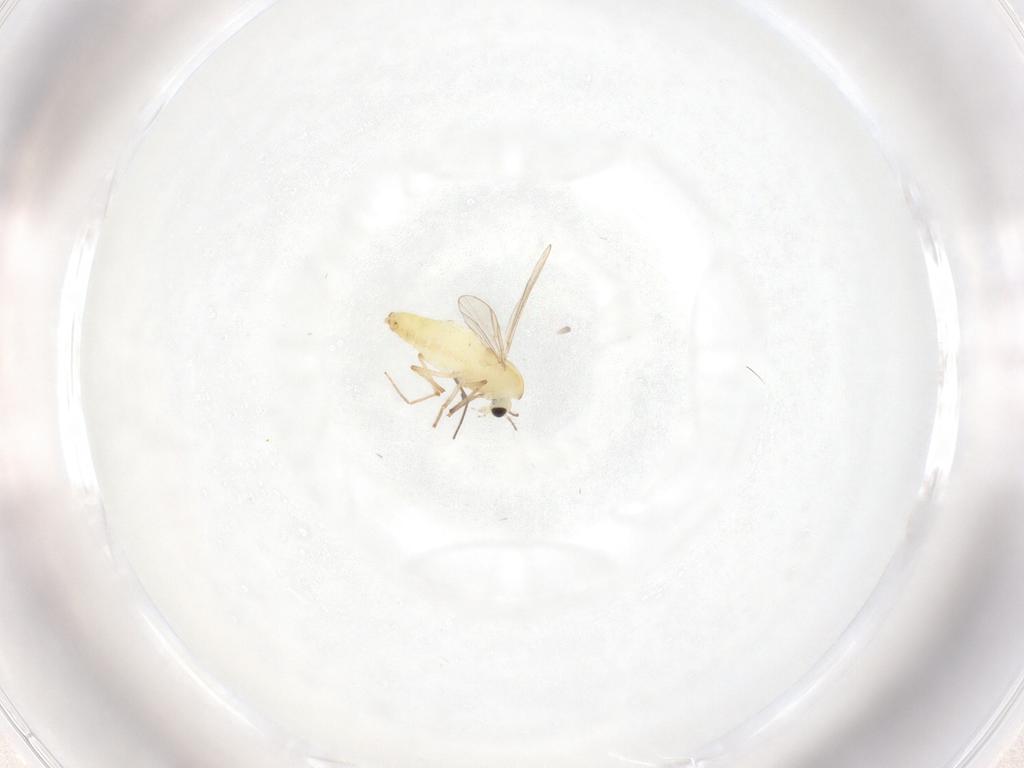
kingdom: Animalia
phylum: Arthropoda
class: Insecta
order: Diptera
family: Chironomidae
